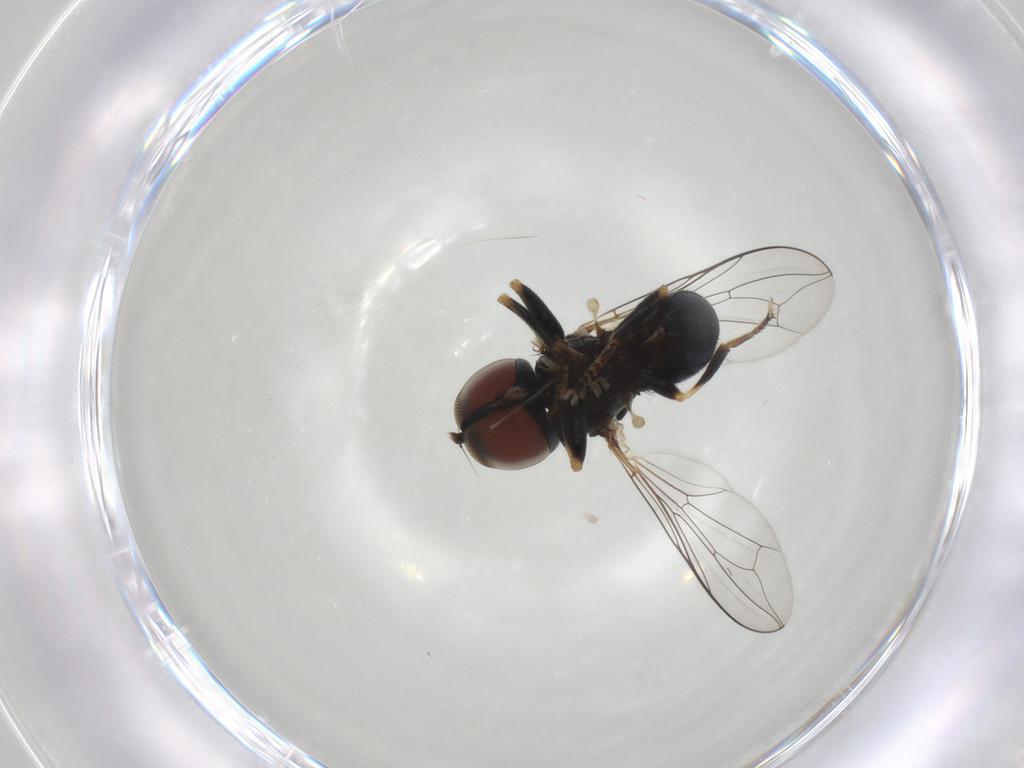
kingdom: Animalia
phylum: Arthropoda
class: Insecta
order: Diptera
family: Pipunculidae
